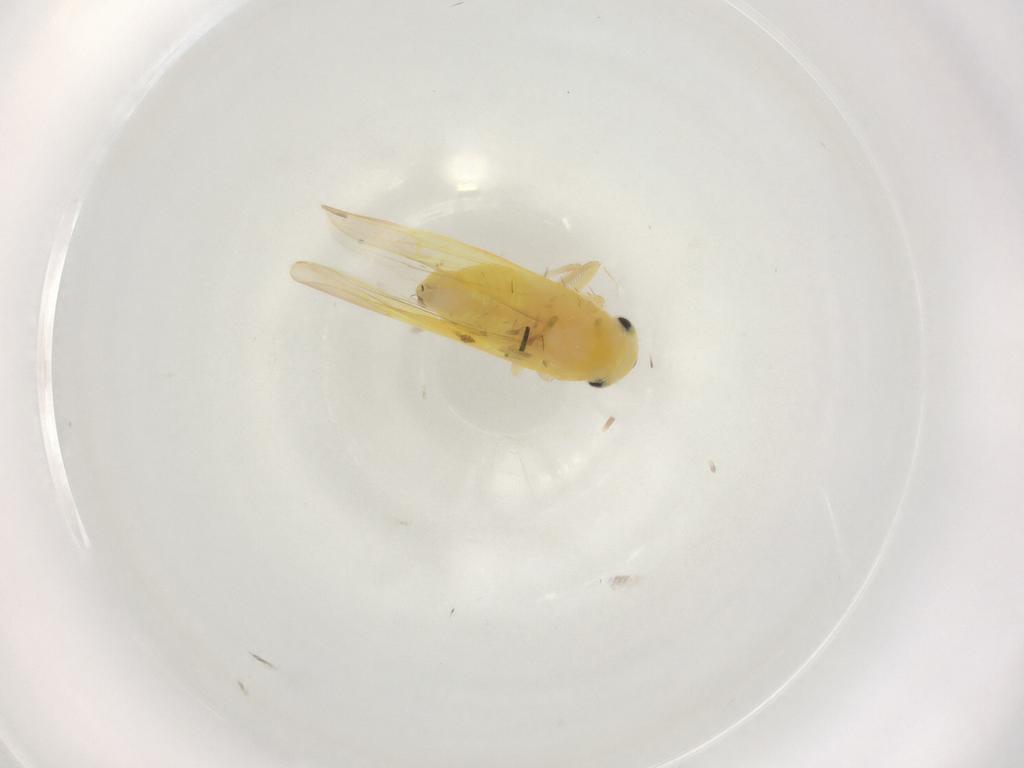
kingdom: Animalia
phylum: Arthropoda
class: Insecta
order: Hemiptera
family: Cicadellidae
